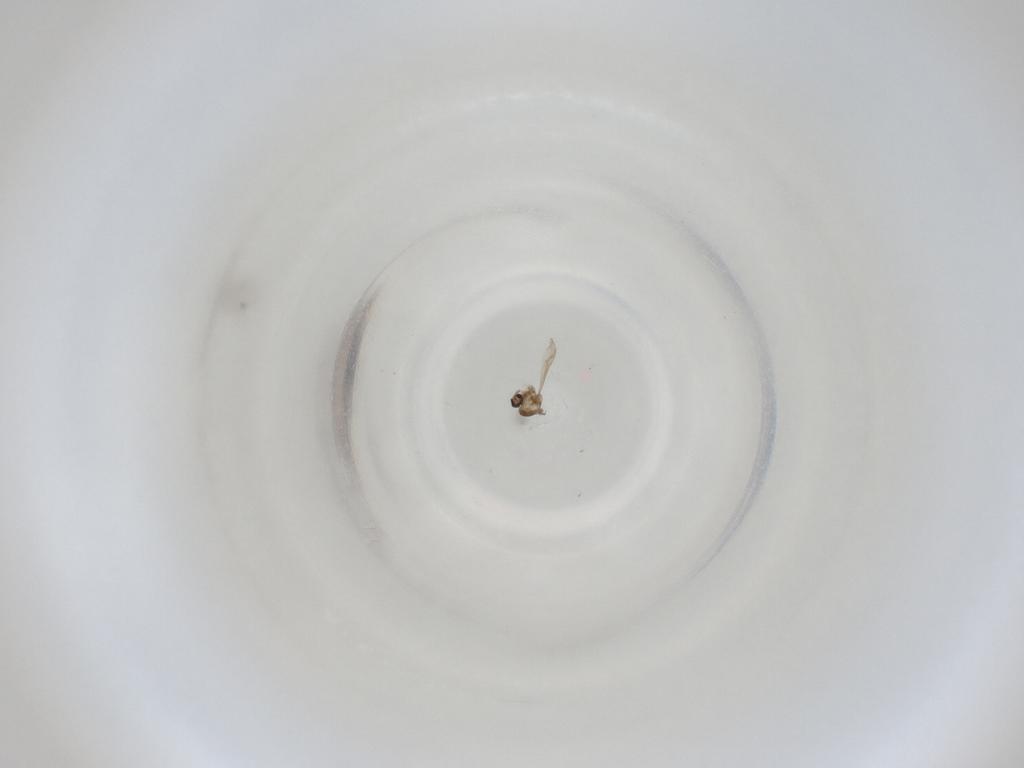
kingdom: Animalia
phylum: Arthropoda
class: Insecta
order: Diptera
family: Cecidomyiidae
